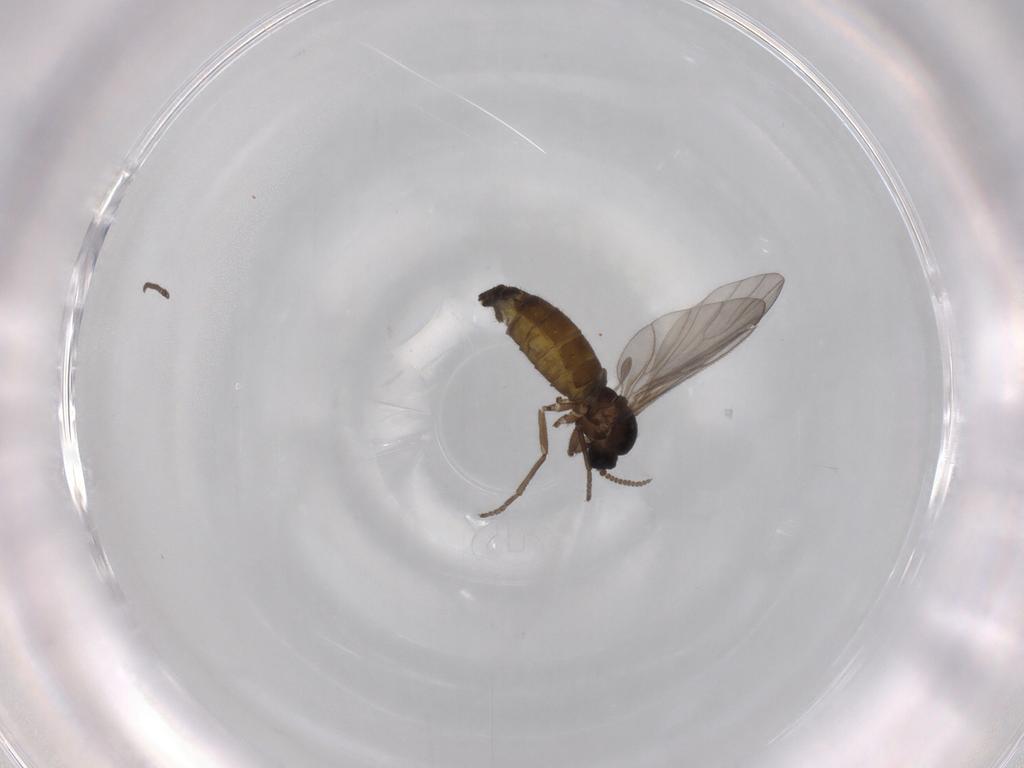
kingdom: Animalia
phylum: Arthropoda
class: Insecta
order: Diptera
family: Sciaridae
